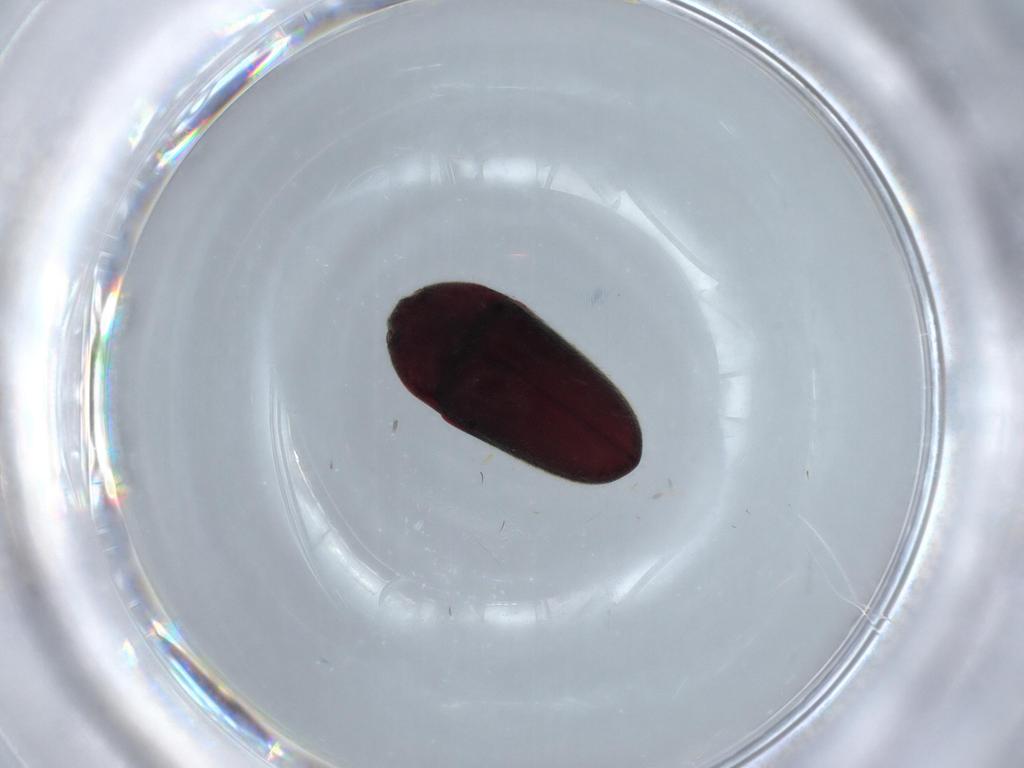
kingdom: Animalia
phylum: Arthropoda
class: Insecta
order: Coleoptera
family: Throscidae
